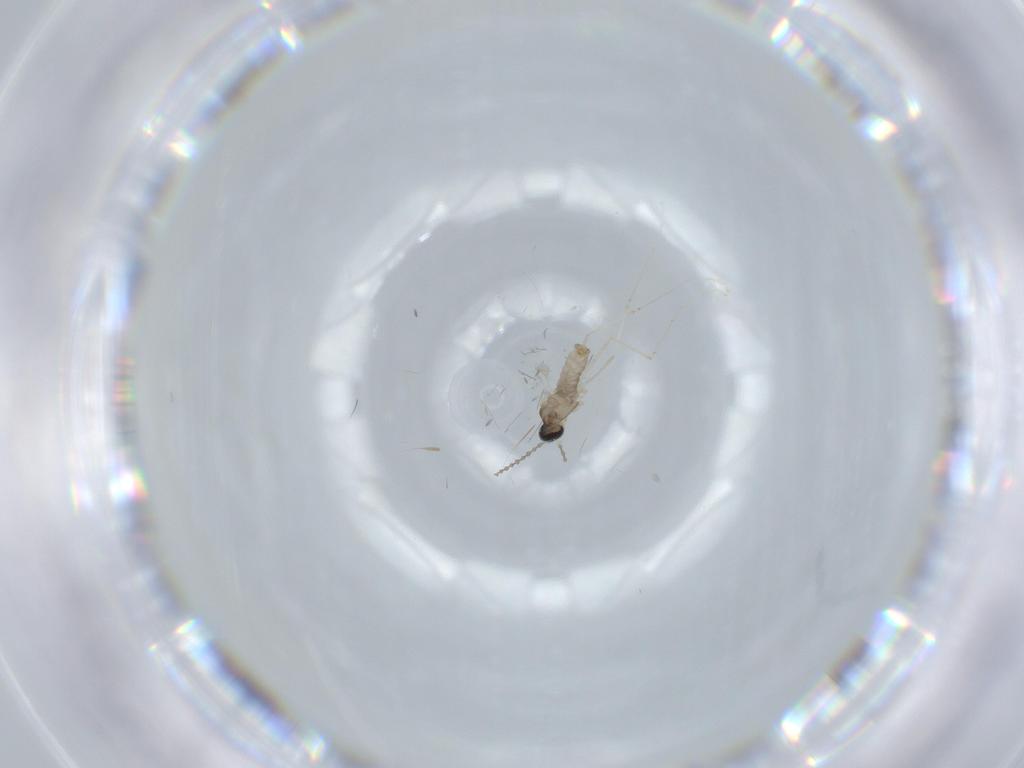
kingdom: Animalia
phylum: Arthropoda
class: Insecta
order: Diptera
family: Cecidomyiidae
